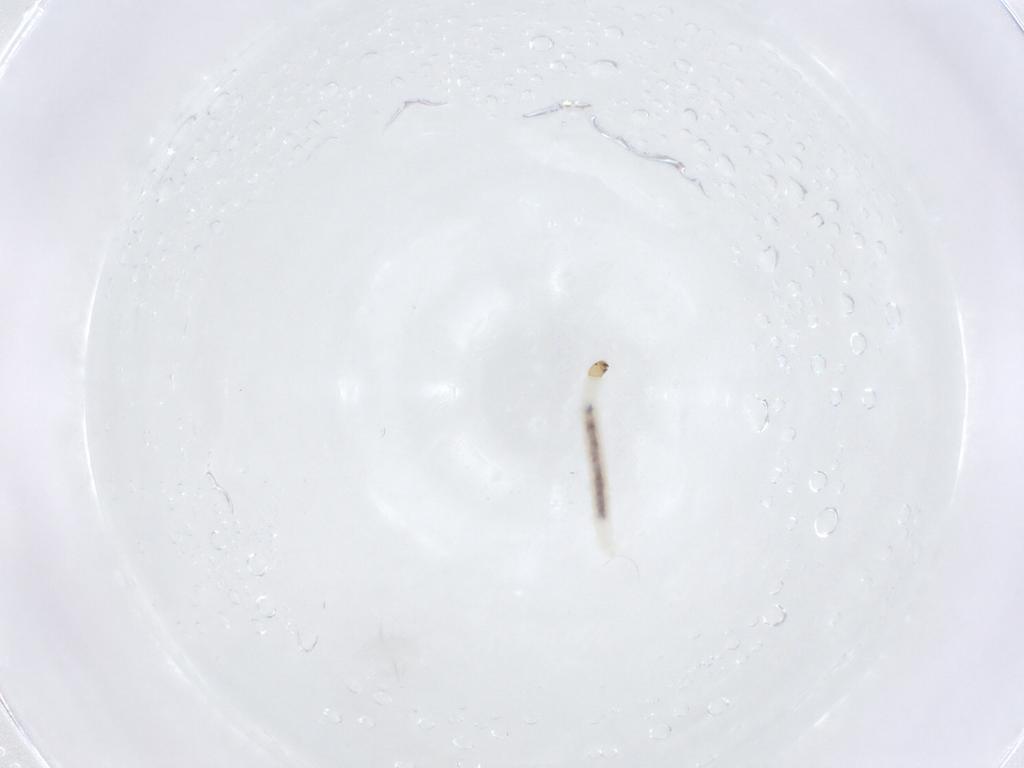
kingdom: Animalia
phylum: Arthropoda
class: Insecta
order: Diptera
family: Chironomidae
